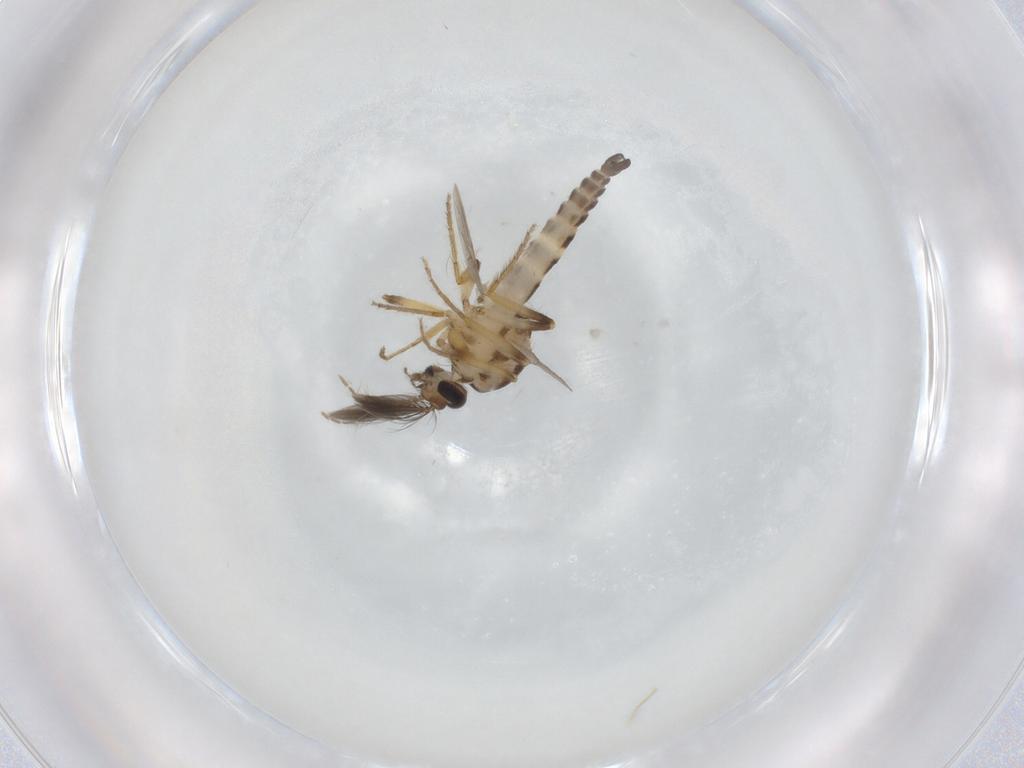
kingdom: Animalia
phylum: Arthropoda
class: Insecta
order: Diptera
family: Ceratopogonidae
